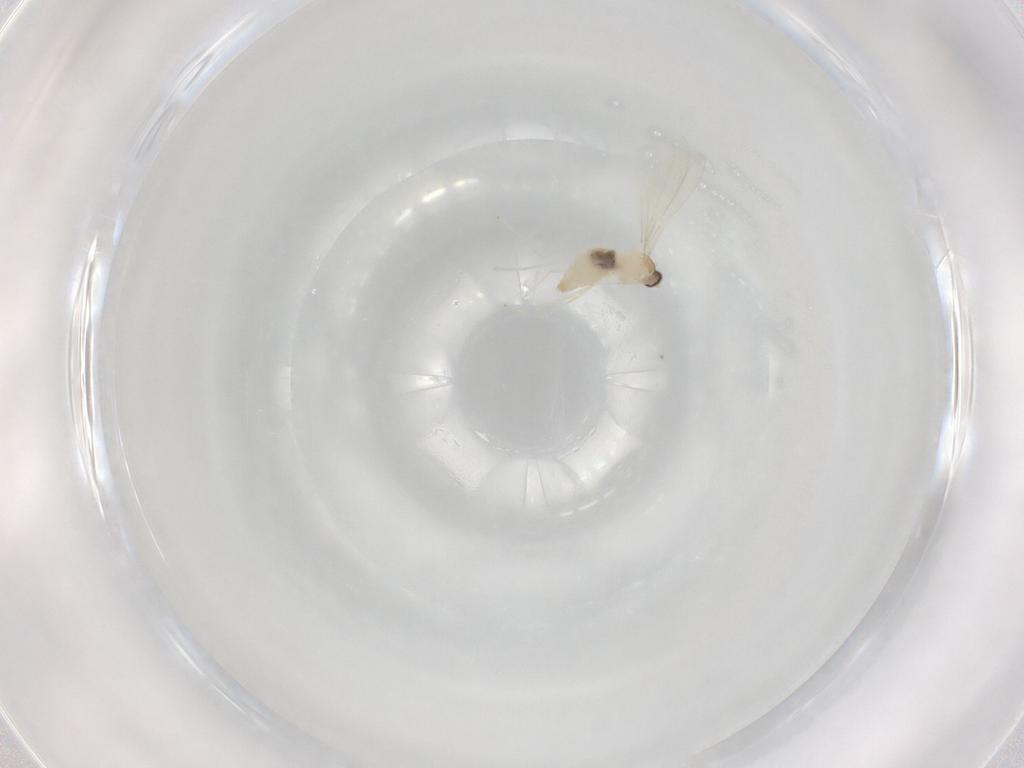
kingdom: Animalia
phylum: Arthropoda
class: Insecta
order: Diptera
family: Cecidomyiidae
